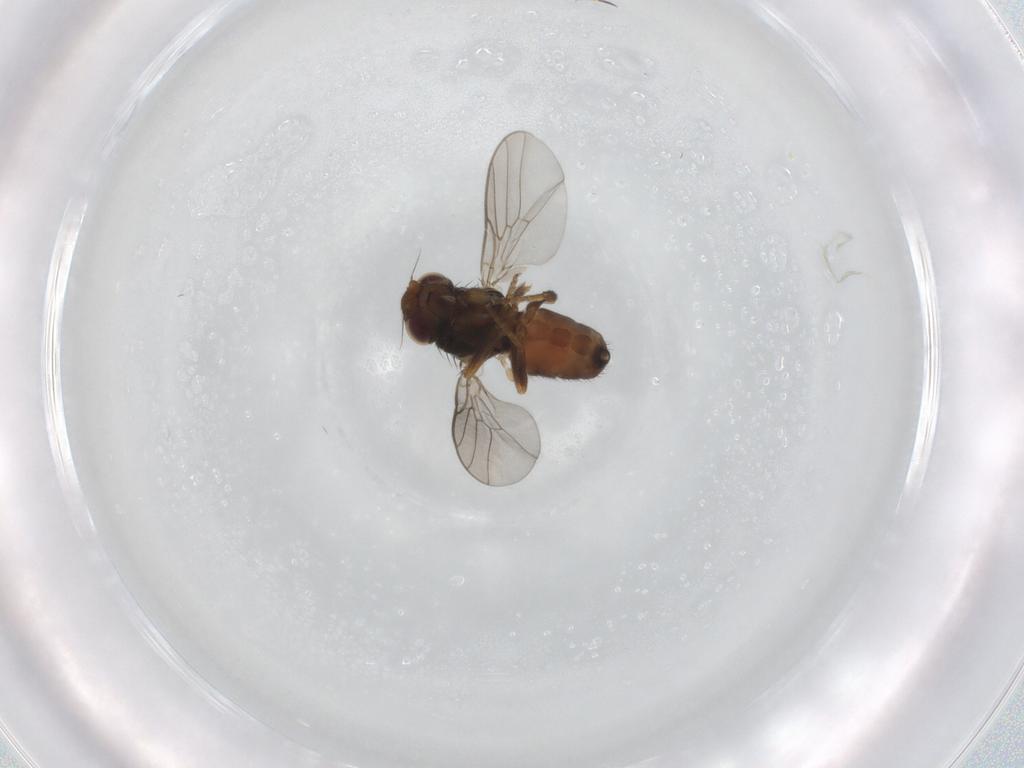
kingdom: Animalia
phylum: Arthropoda
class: Insecta
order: Diptera
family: Chloropidae
